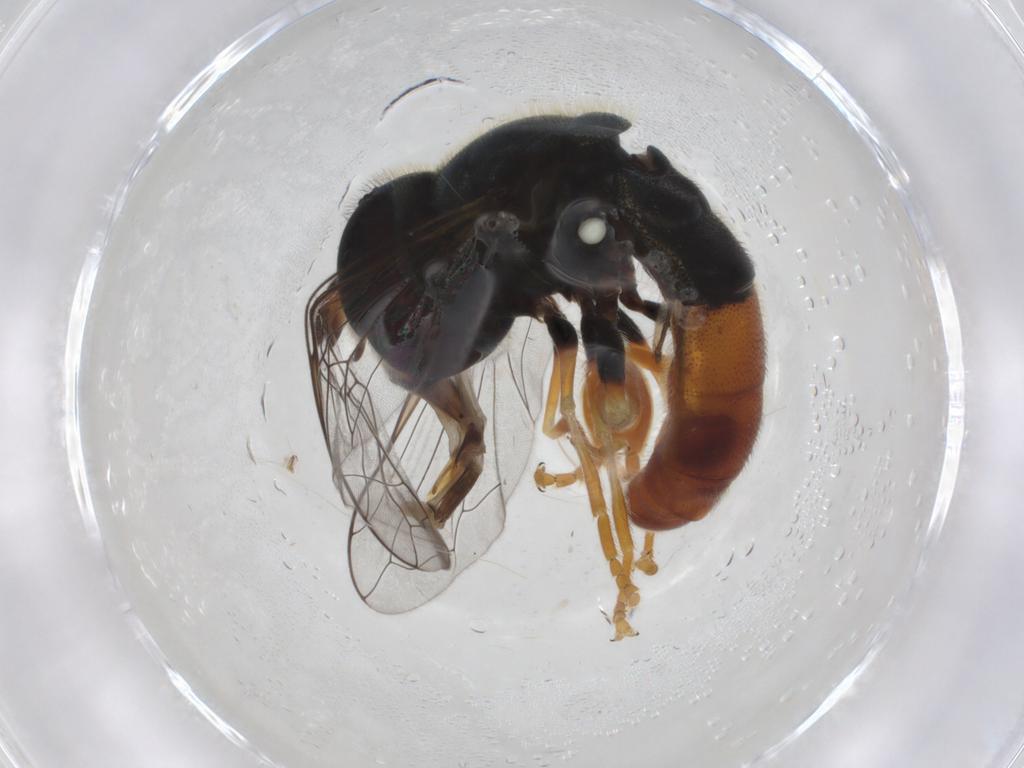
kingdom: Animalia
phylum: Arthropoda
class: Insecta
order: Diptera
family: Syrphidae
